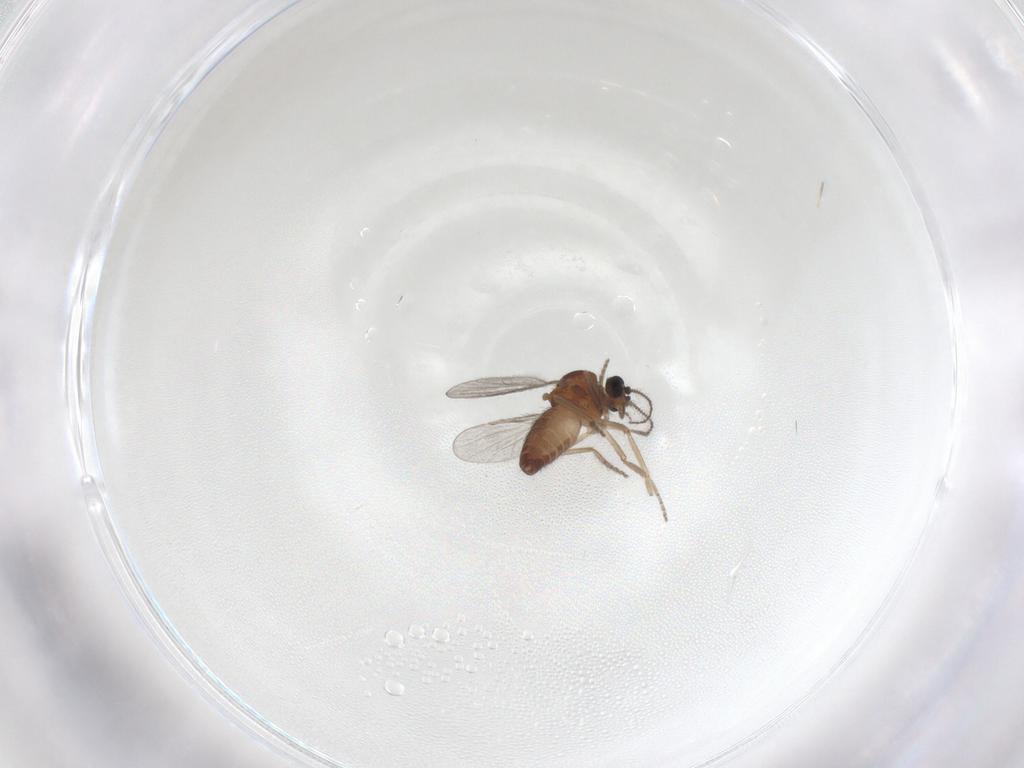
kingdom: Animalia
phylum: Arthropoda
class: Insecta
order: Diptera
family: Ceratopogonidae
